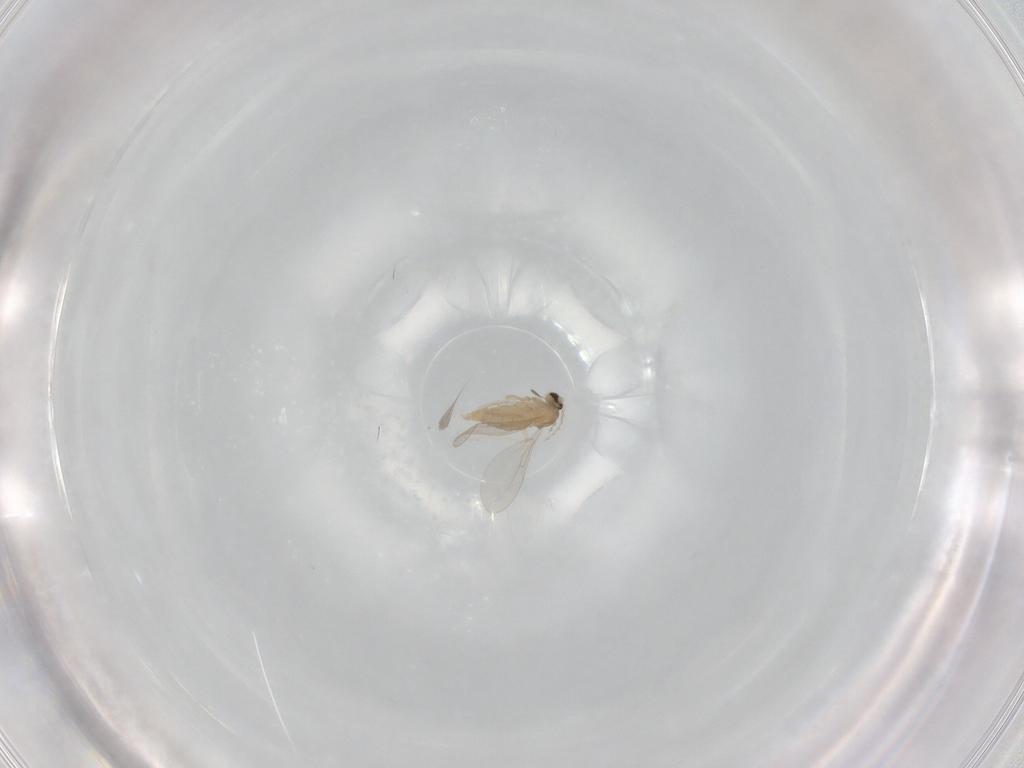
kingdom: Animalia
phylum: Arthropoda
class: Insecta
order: Diptera
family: Cecidomyiidae
